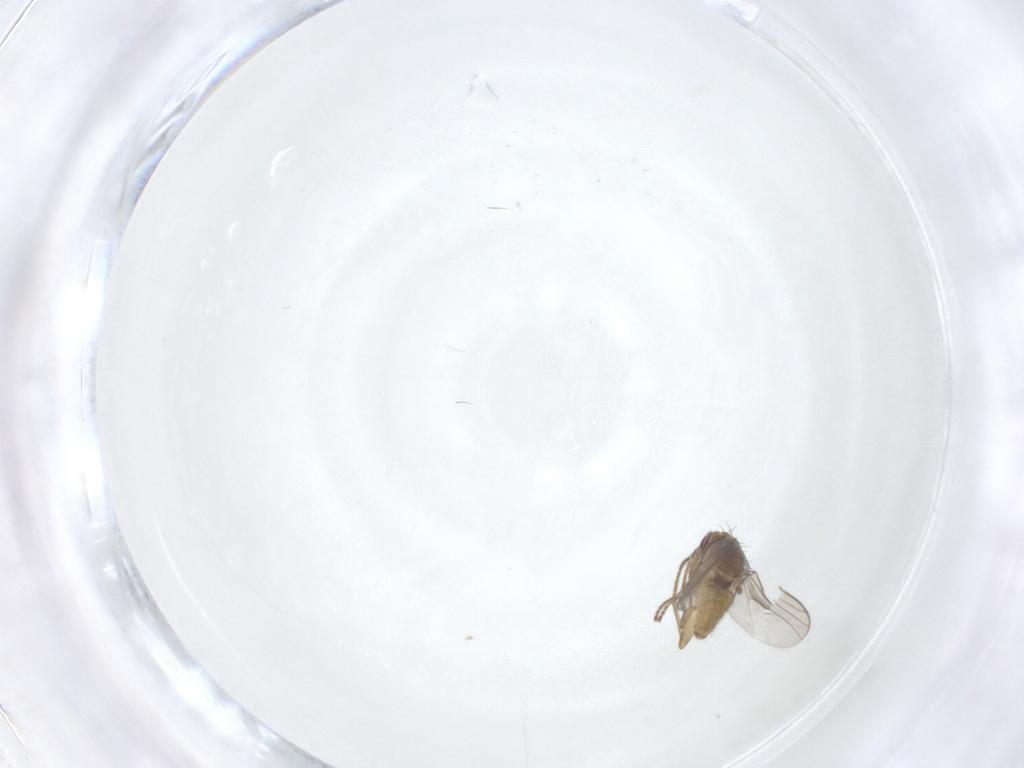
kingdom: Animalia
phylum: Arthropoda
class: Insecta
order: Diptera
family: Agromyzidae
